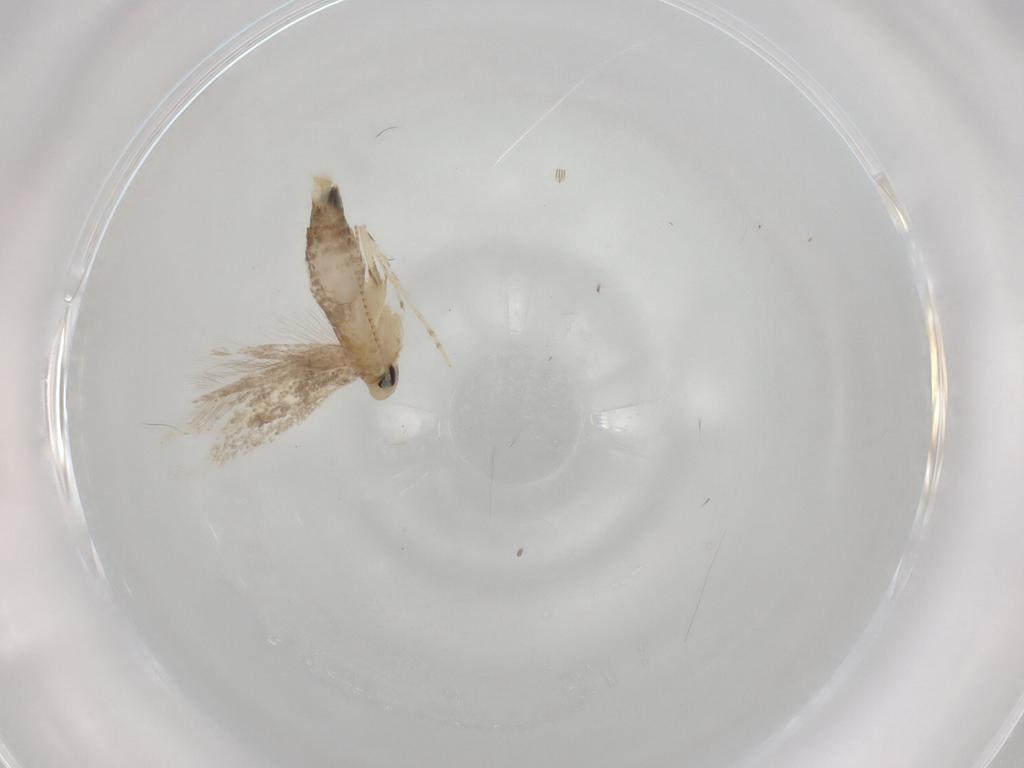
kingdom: Animalia
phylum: Arthropoda
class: Insecta
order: Lepidoptera
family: Gracillariidae
